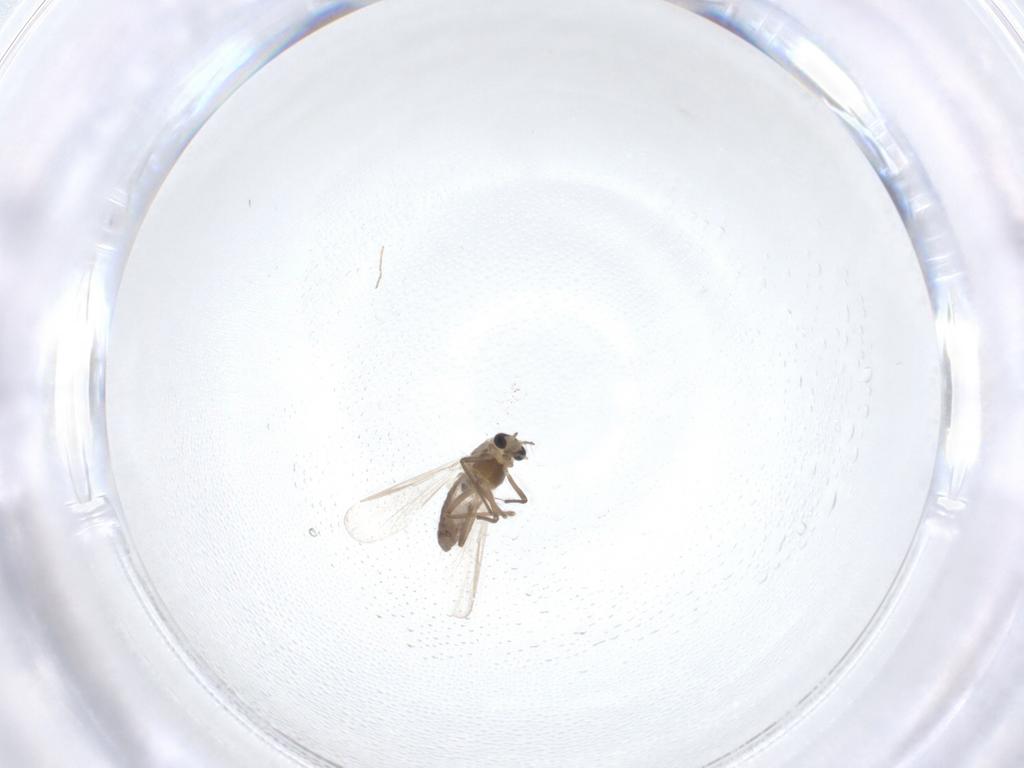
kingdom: Animalia
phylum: Arthropoda
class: Insecta
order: Diptera
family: Chironomidae
